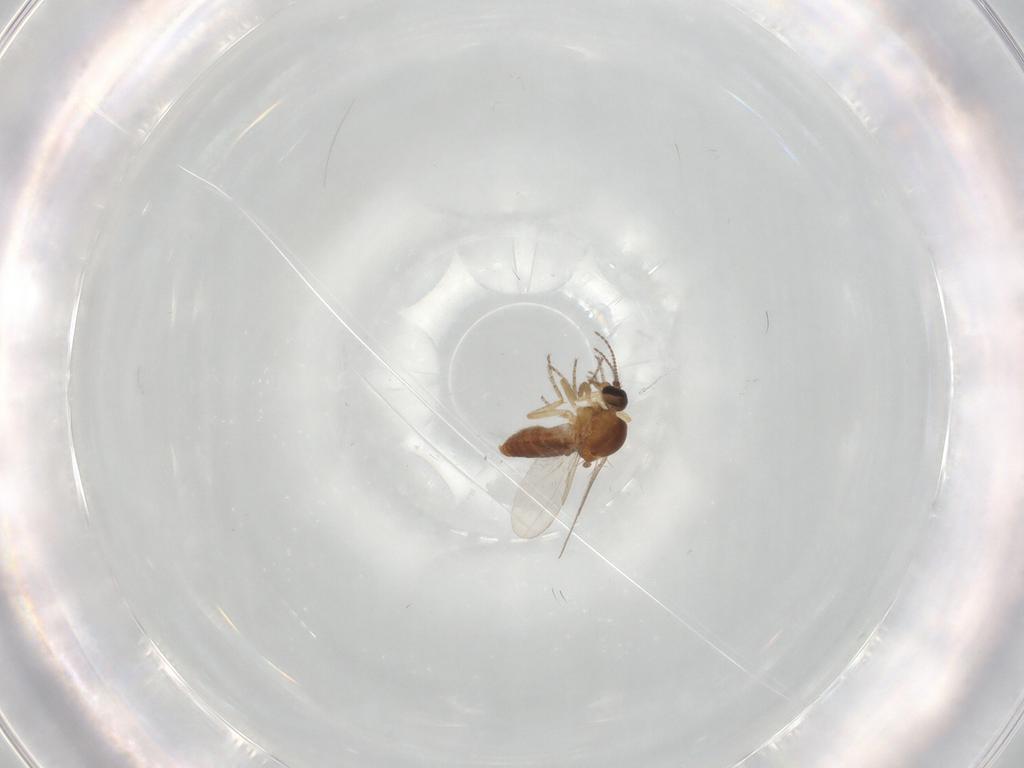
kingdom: Animalia
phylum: Arthropoda
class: Insecta
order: Diptera
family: Ceratopogonidae
